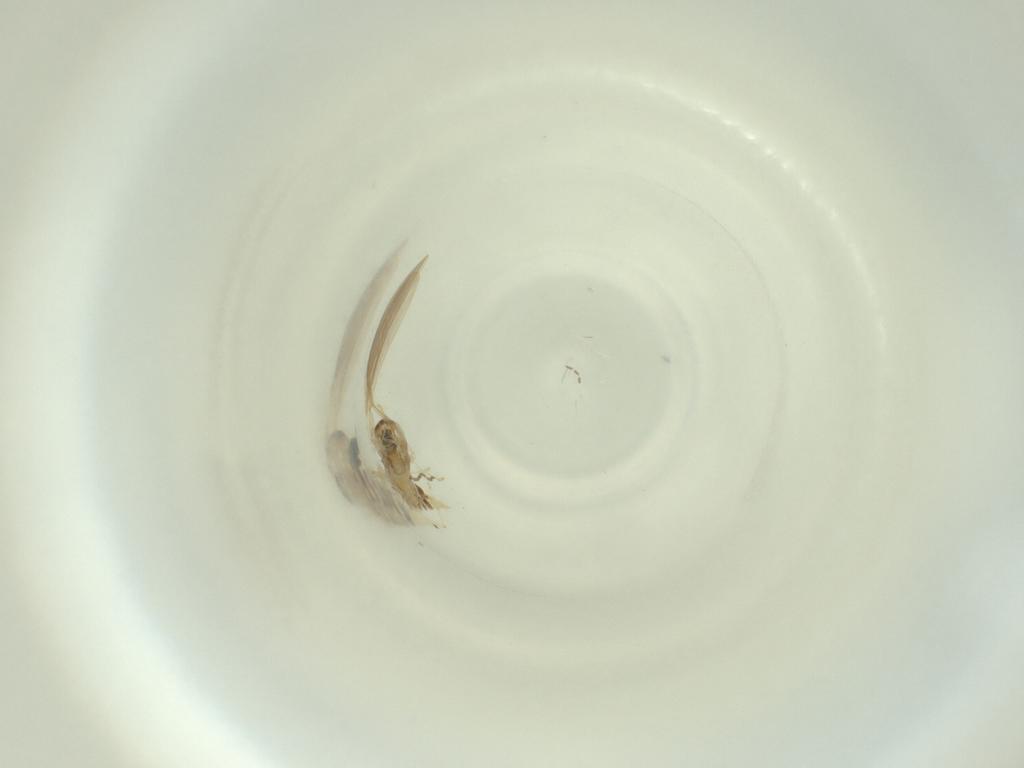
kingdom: Animalia
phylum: Arthropoda
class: Insecta
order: Diptera
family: Cecidomyiidae
